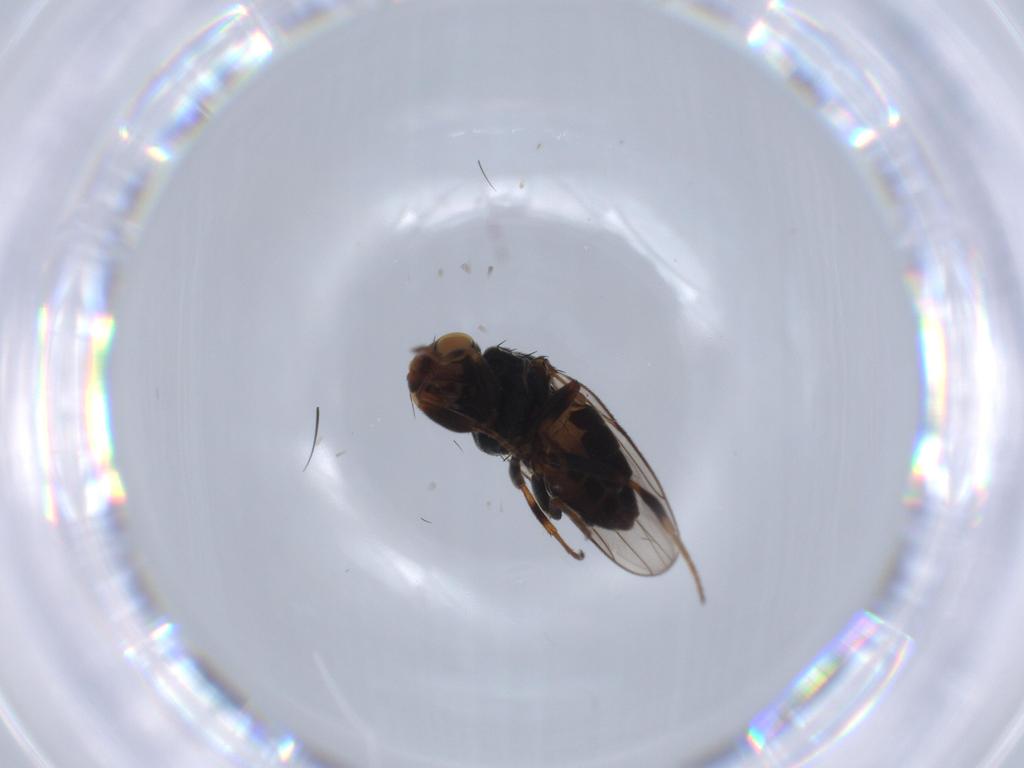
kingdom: Animalia
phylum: Arthropoda
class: Insecta
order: Diptera
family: Chloropidae
